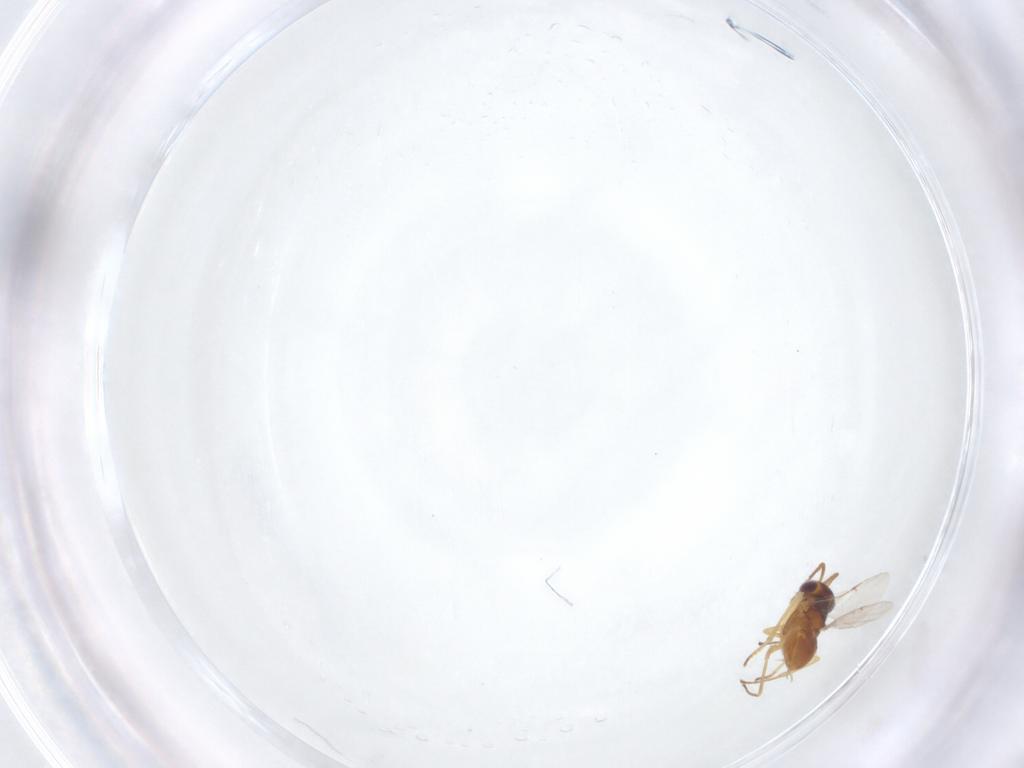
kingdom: Animalia
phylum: Arthropoda
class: Insecta
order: Hymenoptera
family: Encyrtidae
